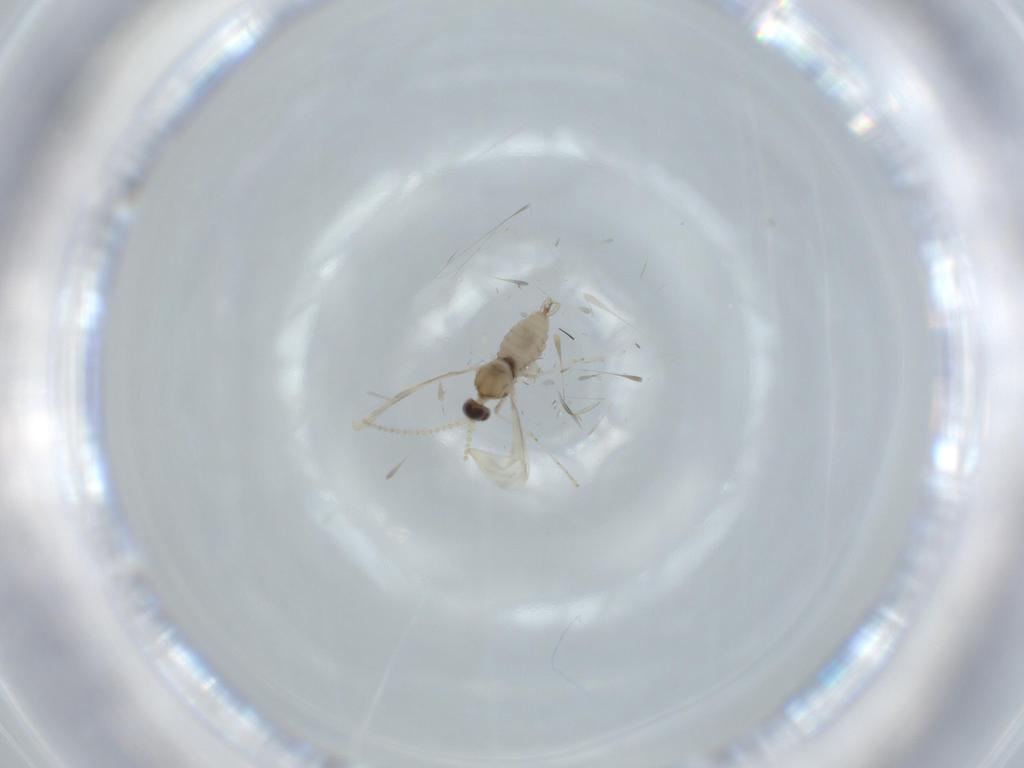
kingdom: Animalia
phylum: Arthropoda
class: Insecta
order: Diptera
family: Cecidomyiidae
